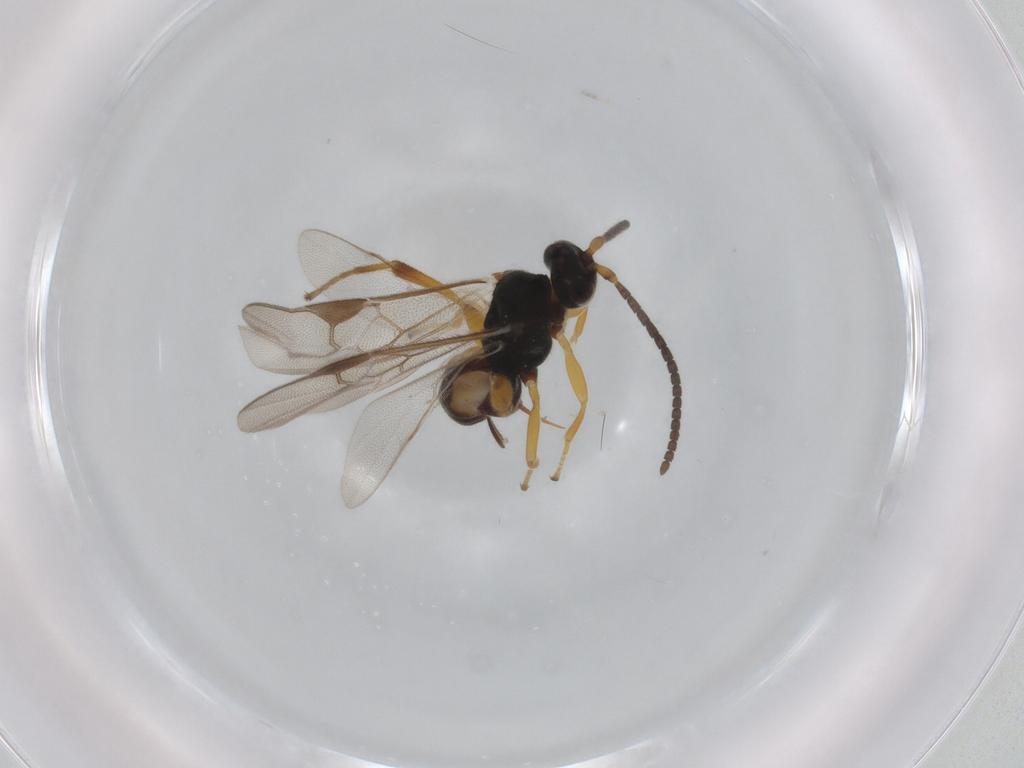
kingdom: Animalia
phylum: Arthropoda
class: Insecta
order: Hymenoptera
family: Braconidae
